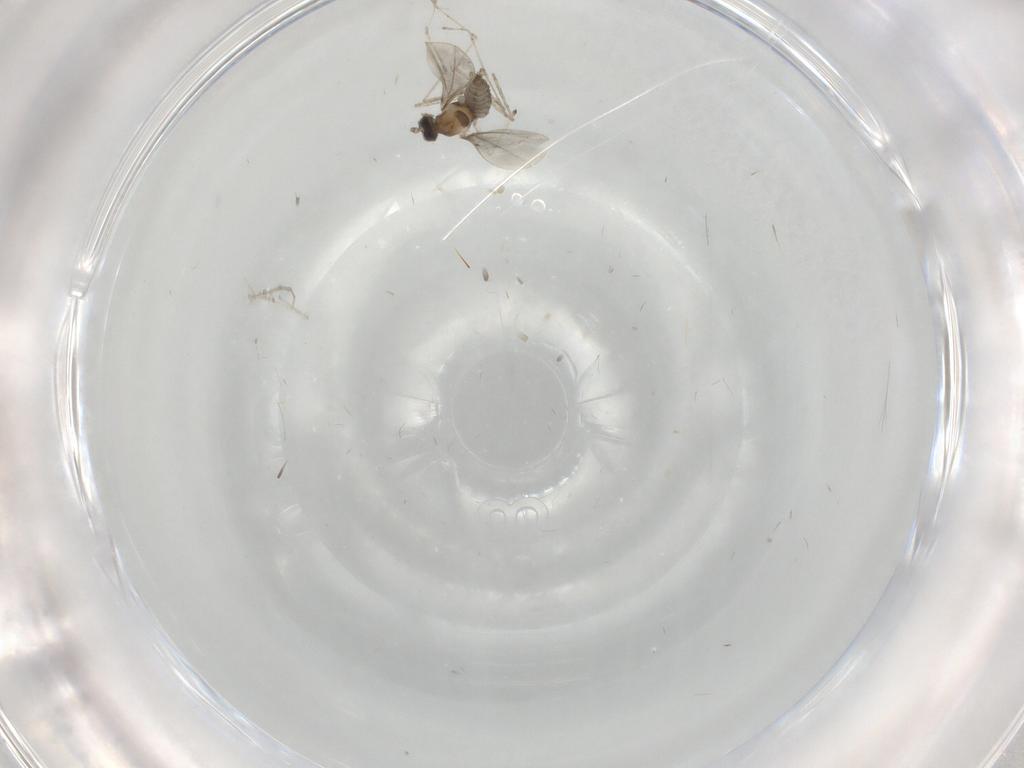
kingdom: Animalia
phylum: Arthropoda
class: Insecta
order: Diptera
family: Cecidomyiidae
